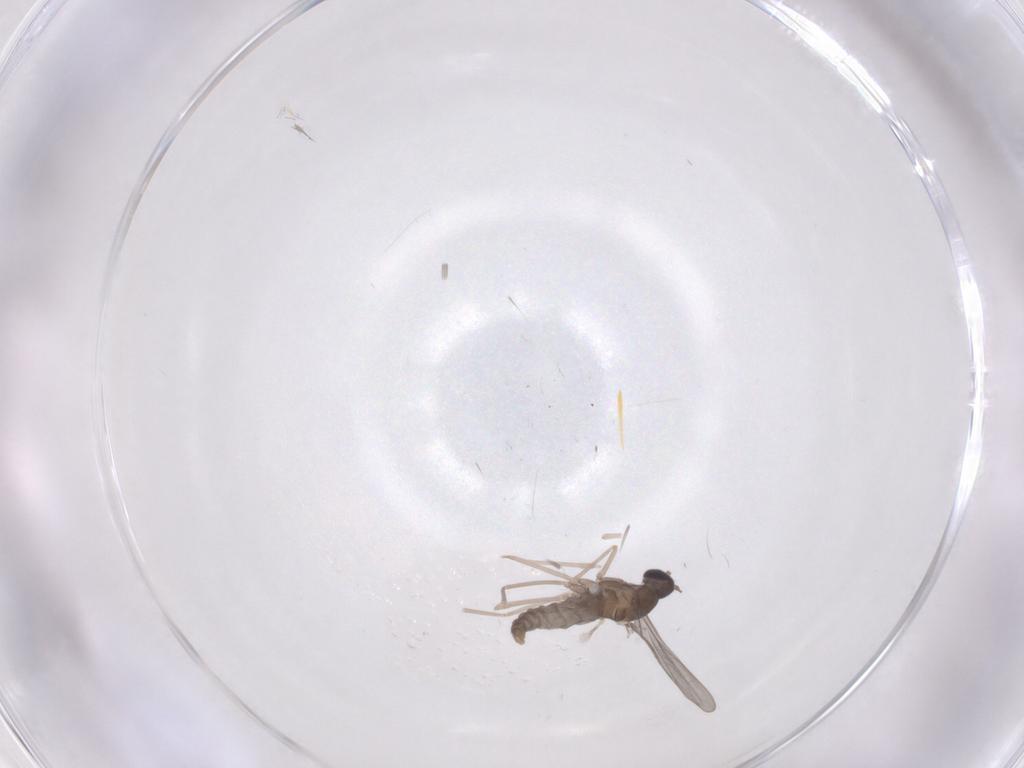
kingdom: Animalia
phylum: Arthropoda
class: Insecta
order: Diptera
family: Cecidomyiidae
